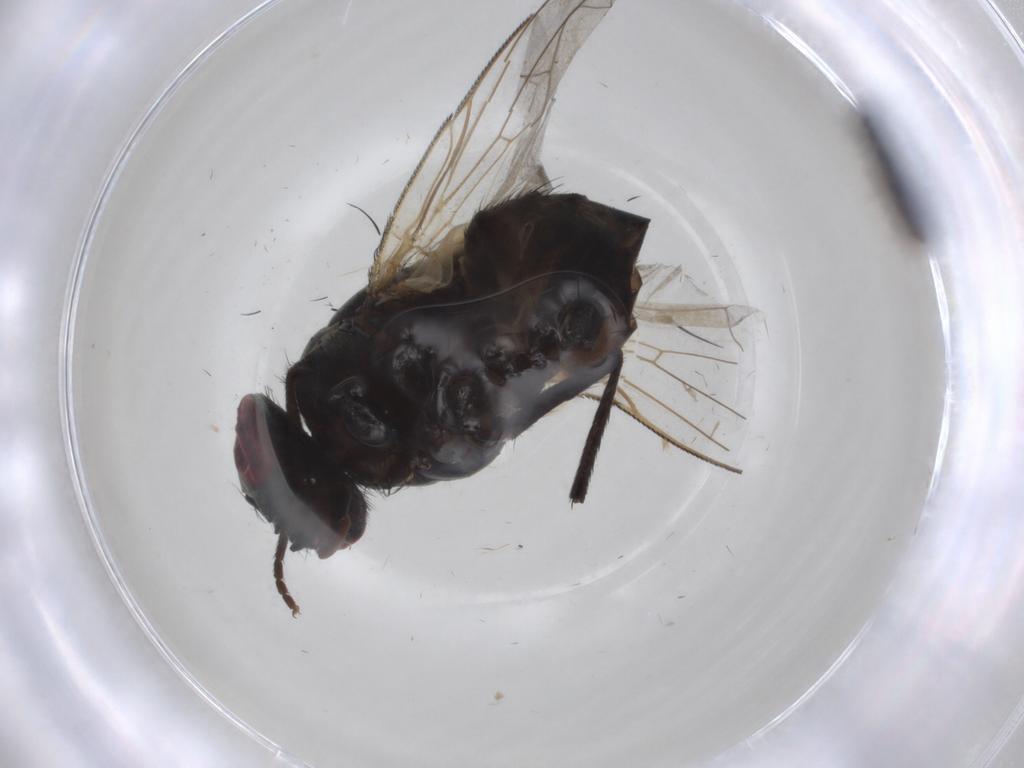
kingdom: Animalia
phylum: Arthropoda
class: Insecta
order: Diptera
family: Muscidae
